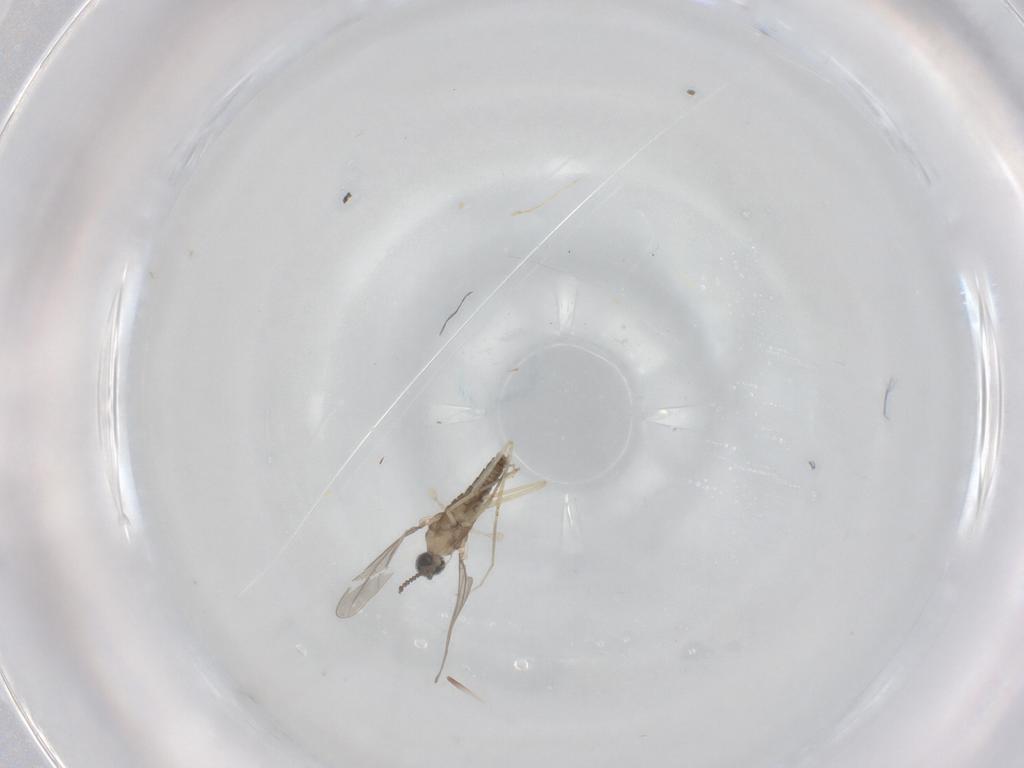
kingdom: Animalia
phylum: Arthropoda
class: Insecta
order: Diptera
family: Cecidomyiidae
